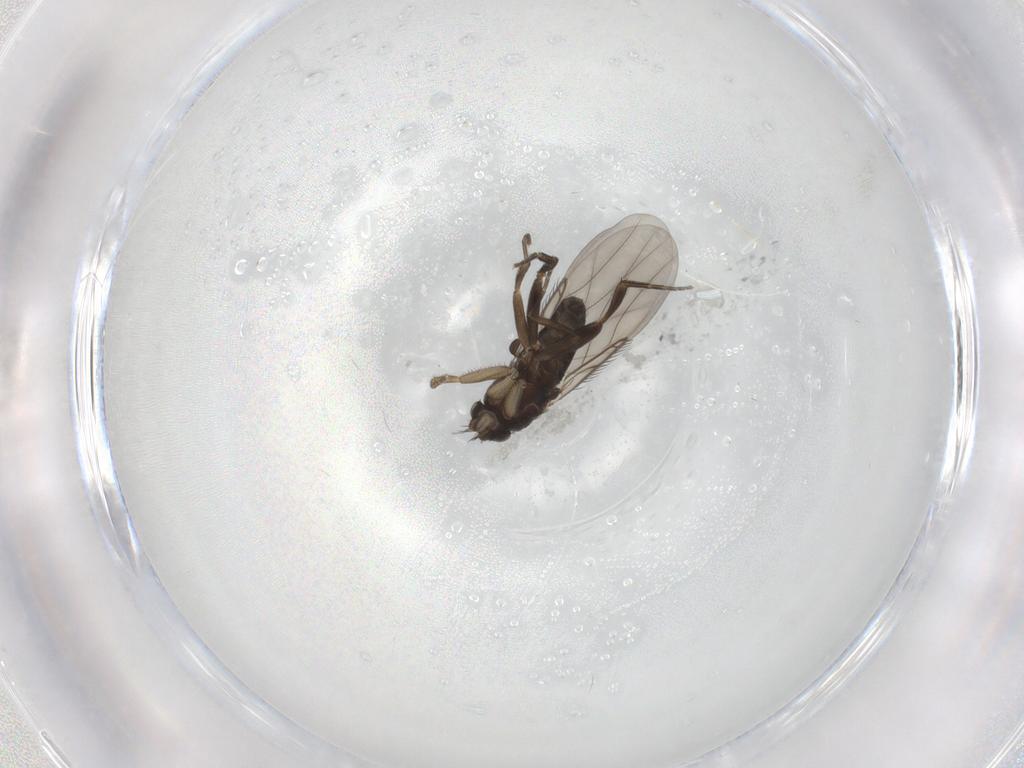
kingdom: Animalia
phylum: Arthropoda
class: Insecta
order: Diptera
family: Phoridae
